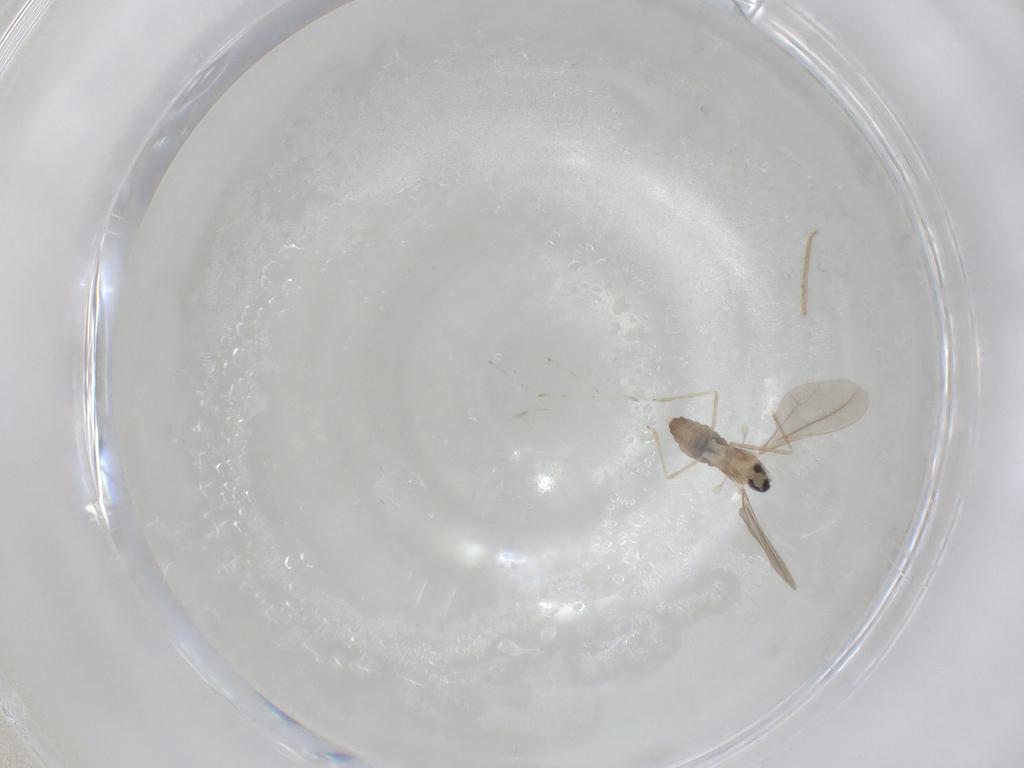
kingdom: Animalia
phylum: Arthropoda
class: Insecta
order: Diptera
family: Cecidomyiidae
